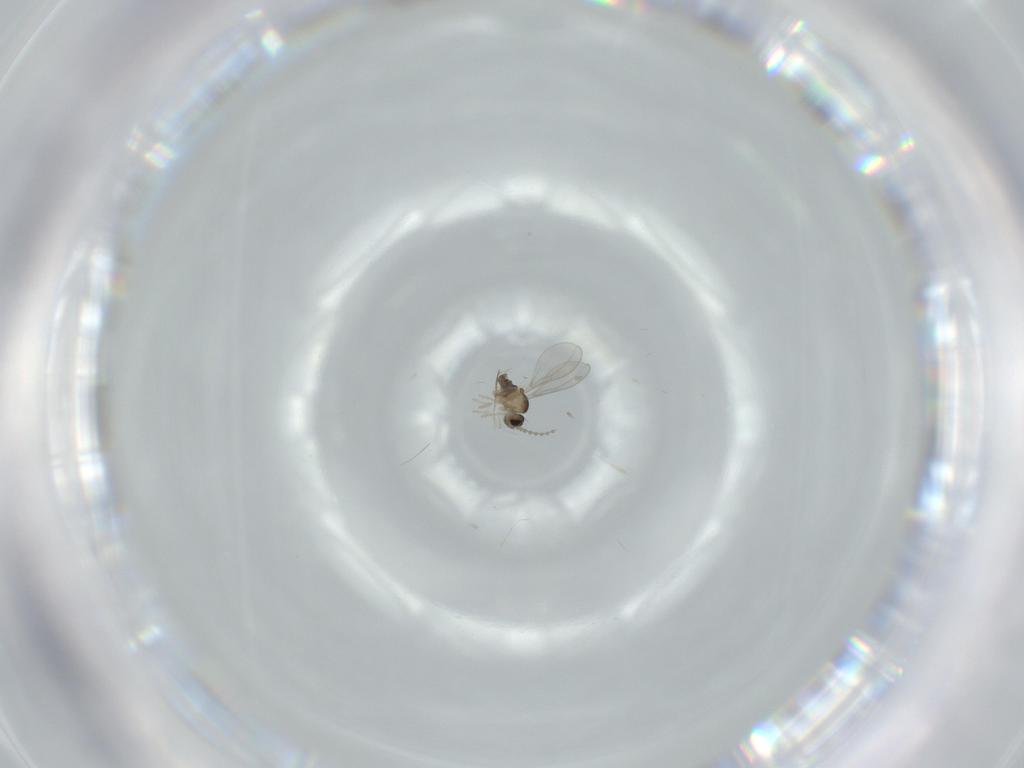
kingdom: Animalia
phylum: Arthropoda
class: Insecta
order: Diptera
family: Cecidomyiidae
